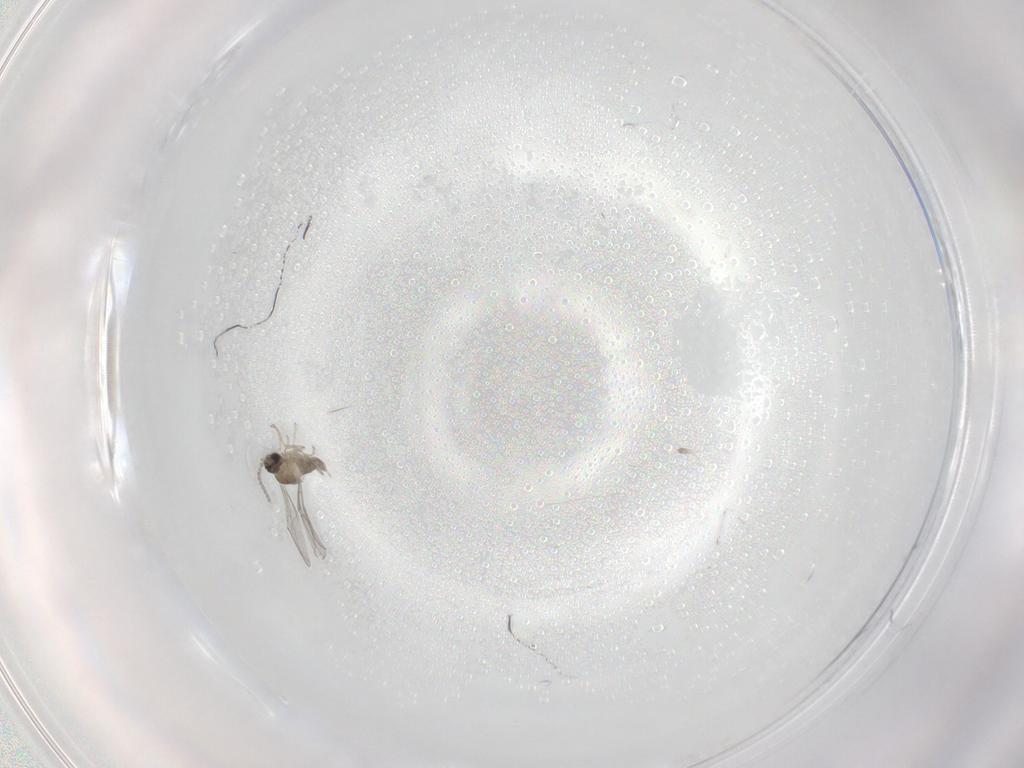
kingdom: Animalia
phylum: Arthropoda
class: Insecta
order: Diptera
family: Cecidomyiidae
